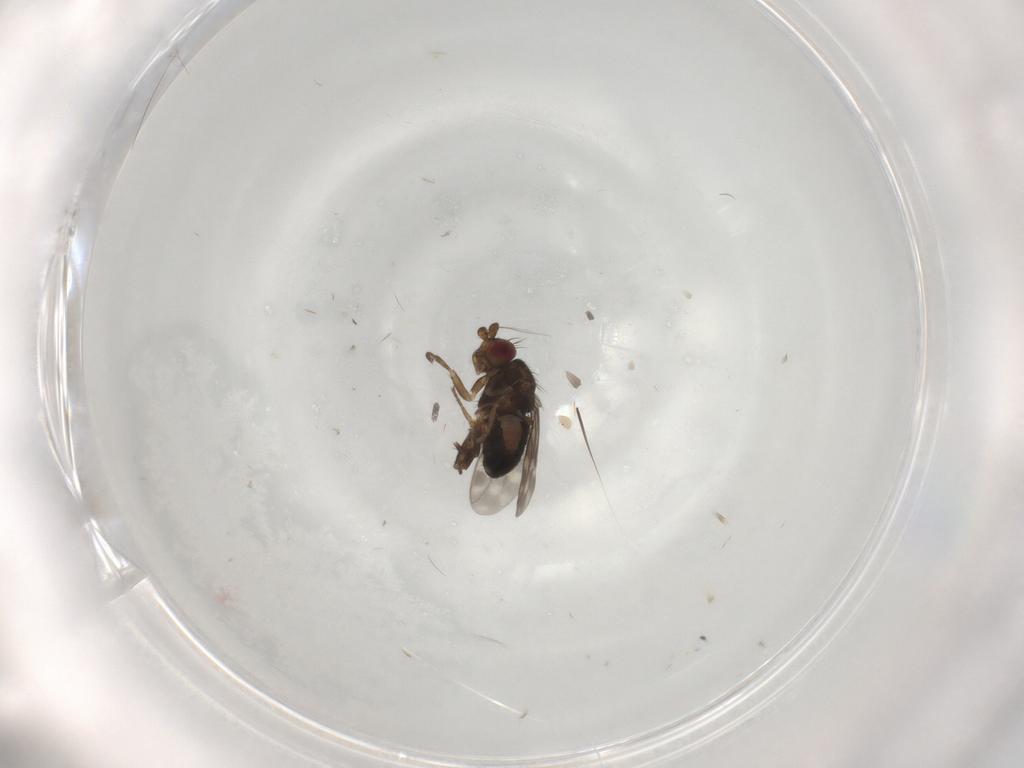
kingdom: Animalia
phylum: Arthropoda
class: Insecta
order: Diptera
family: Sphaeroceridae
